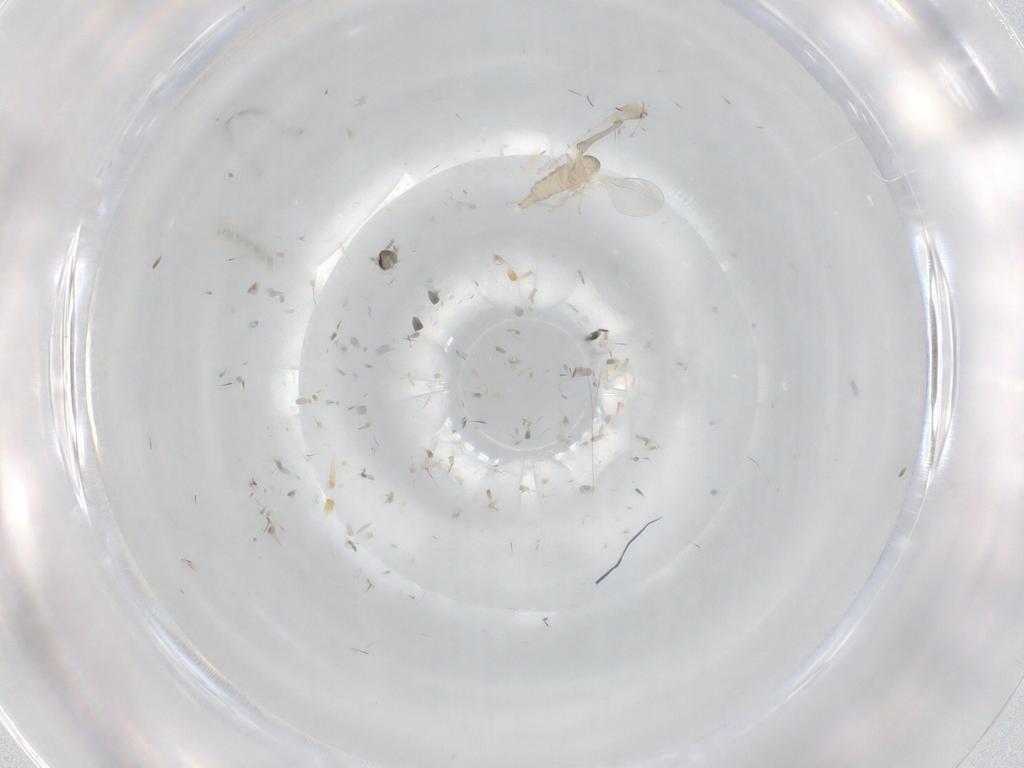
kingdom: Animalia
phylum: Arthropoda
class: Insecta
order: Diptera
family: Cecidomyiidae
